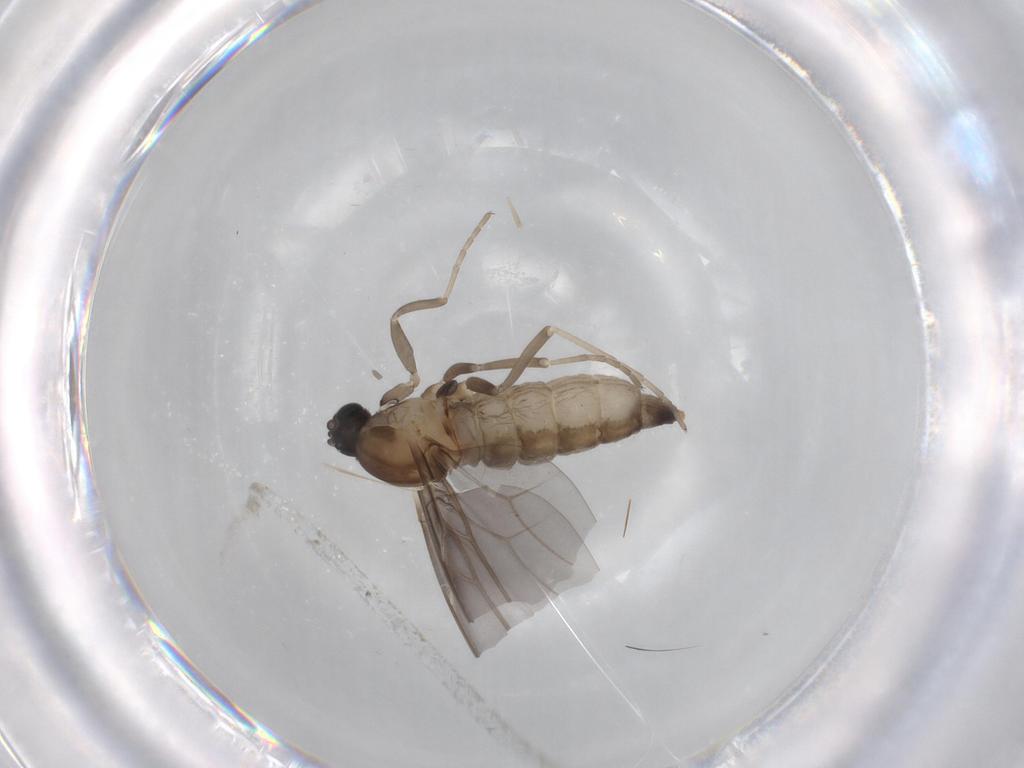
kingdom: Animalia
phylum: Arthropoda
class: Insecta
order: Diptera
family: Cecidomyiidae
